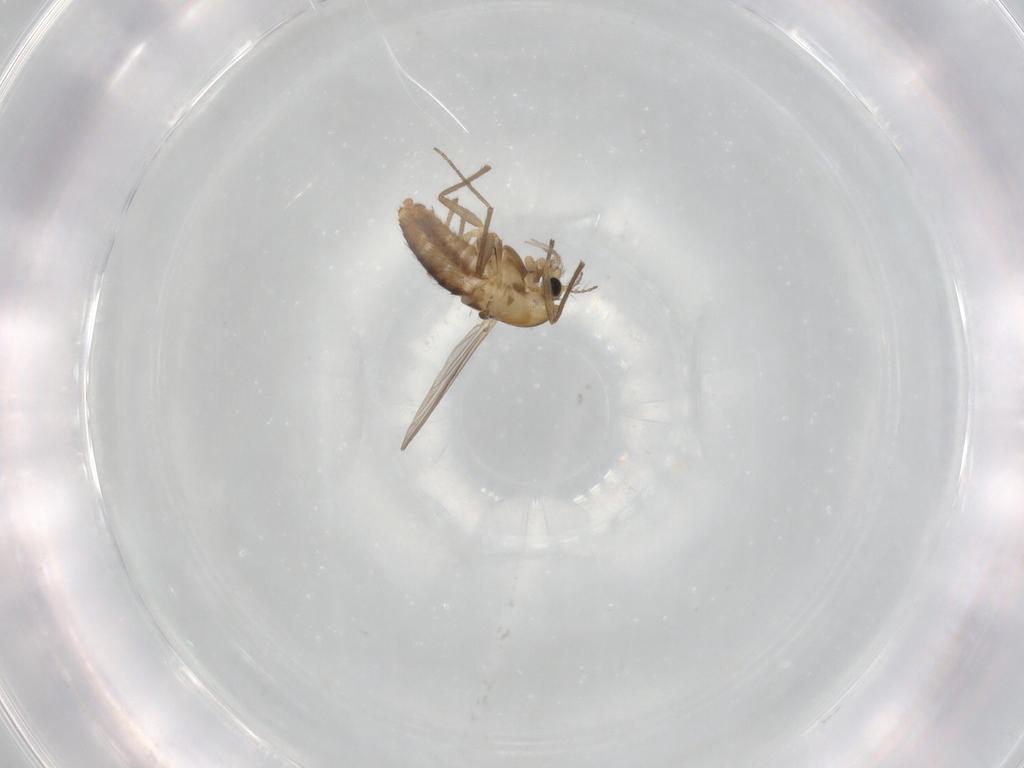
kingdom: Animalia
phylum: Arthropoda
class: Insecta
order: Diptera
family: Chironomidae
